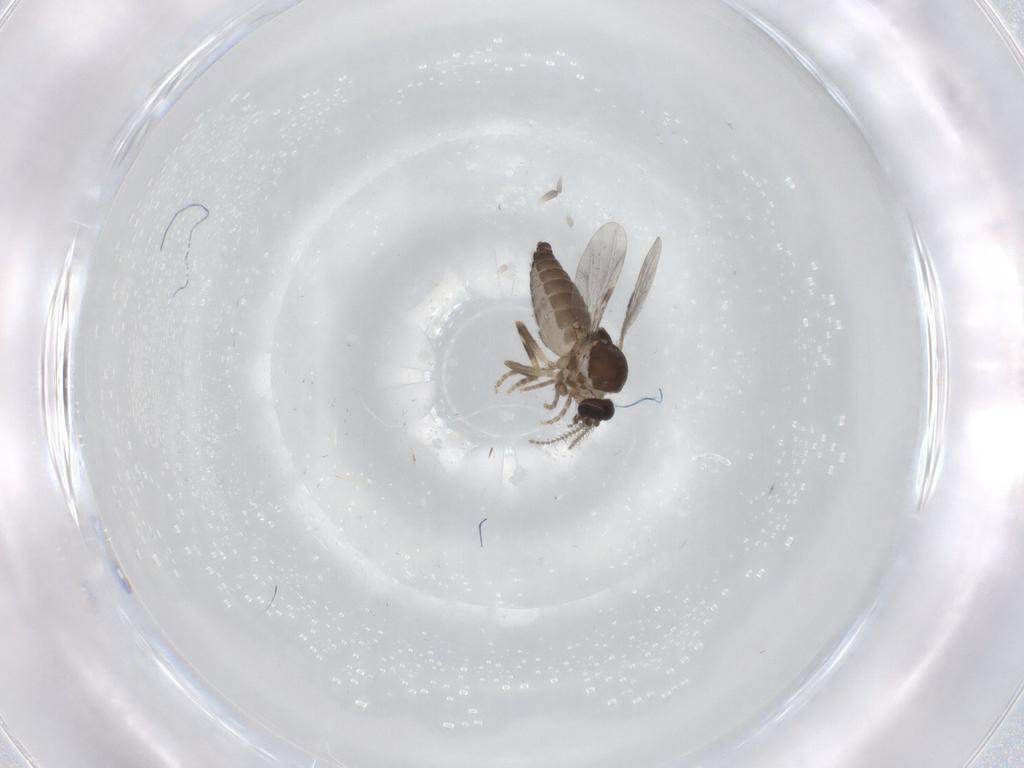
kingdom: Animalia
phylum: Arthropoda
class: Insecta
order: Diptera
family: Ceratopogonidae
